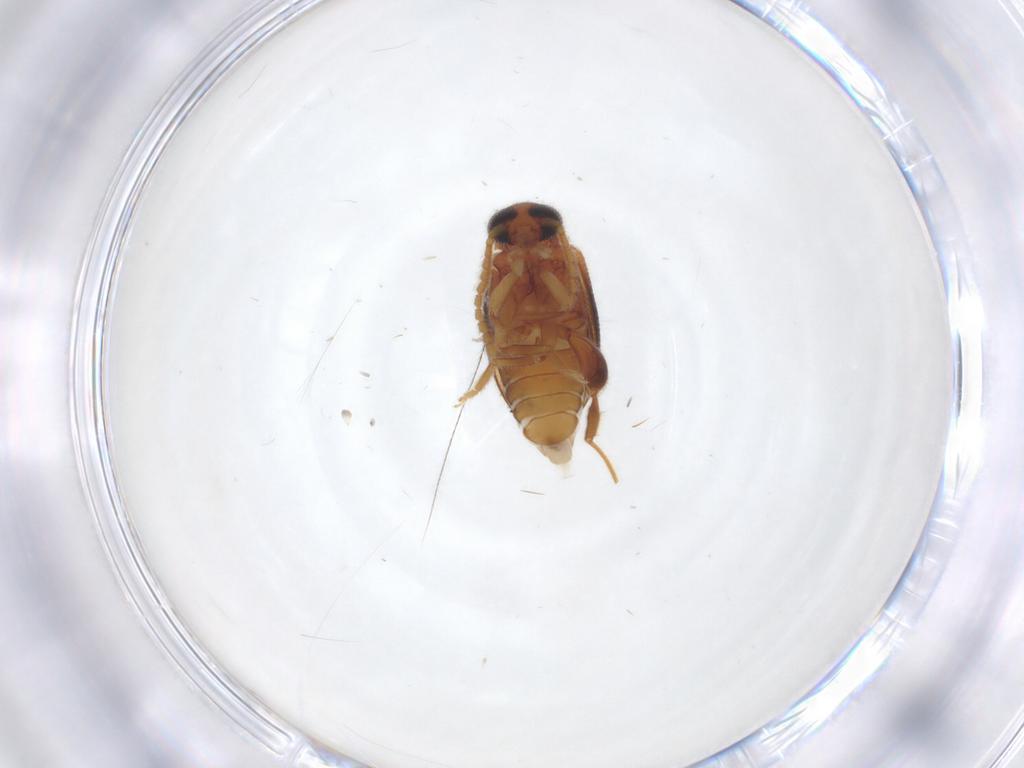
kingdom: Animalia
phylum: Arthropoda
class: Insecta
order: Coleoptera
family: Aderidae
